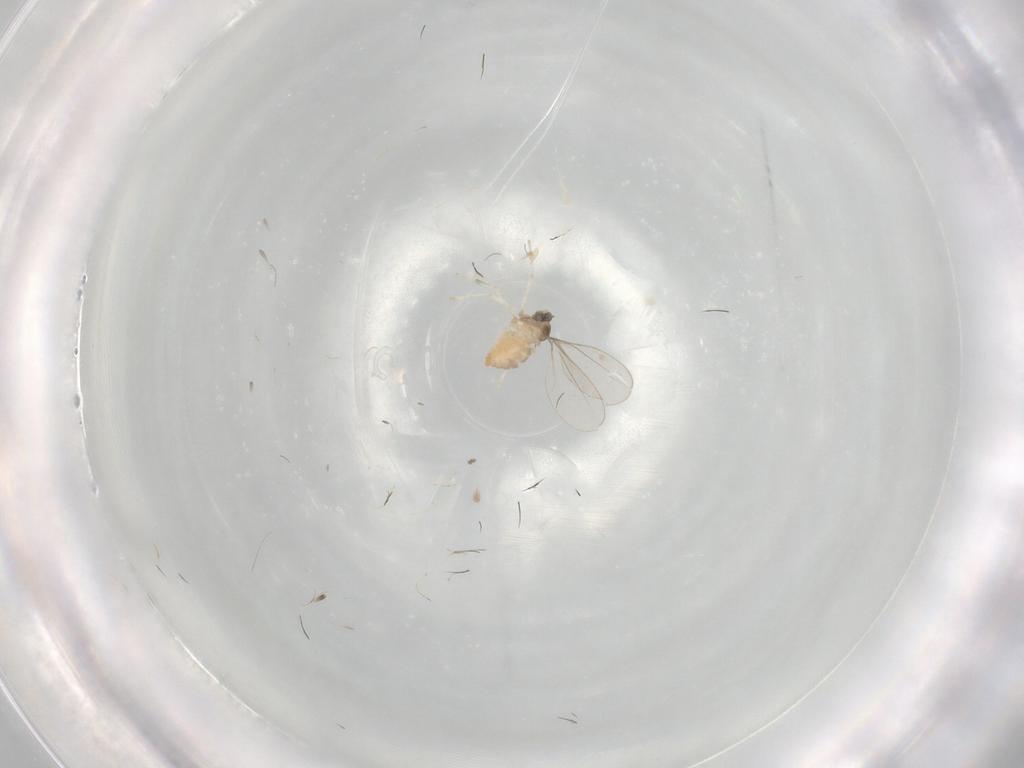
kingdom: Animalia
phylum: Arthropoda
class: Insecta
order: Diptera
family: Cecidomyiidae
